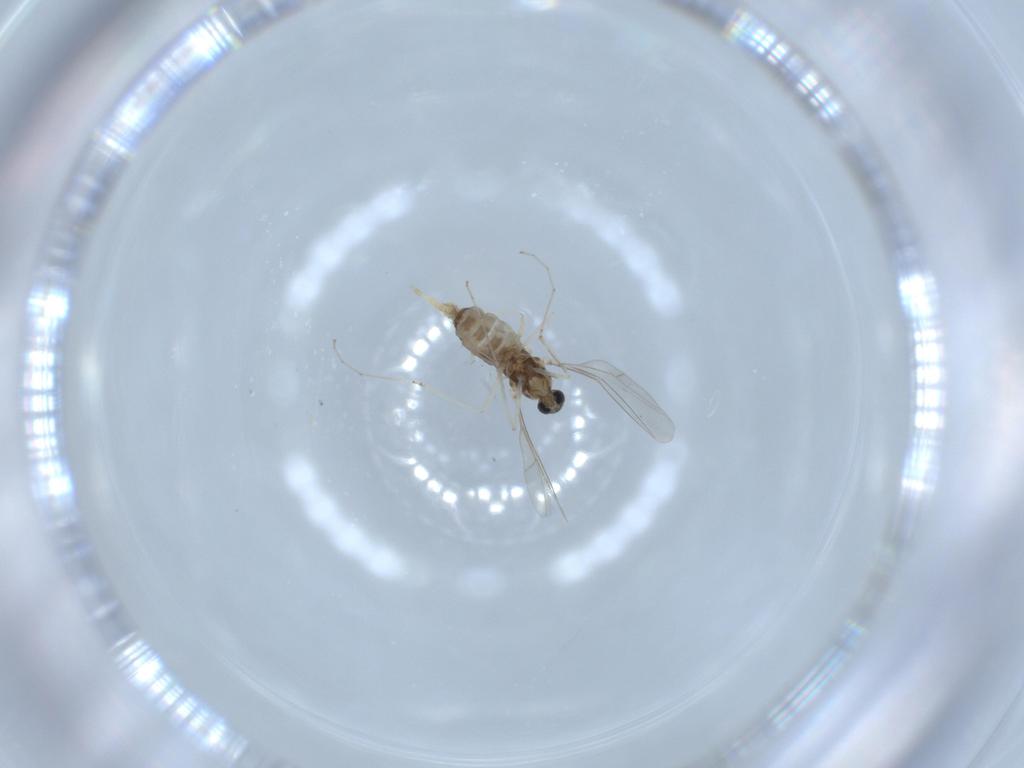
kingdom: Animalia
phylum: Arthropoda
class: Insecta
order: Diptera
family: Cecidomyiidae
